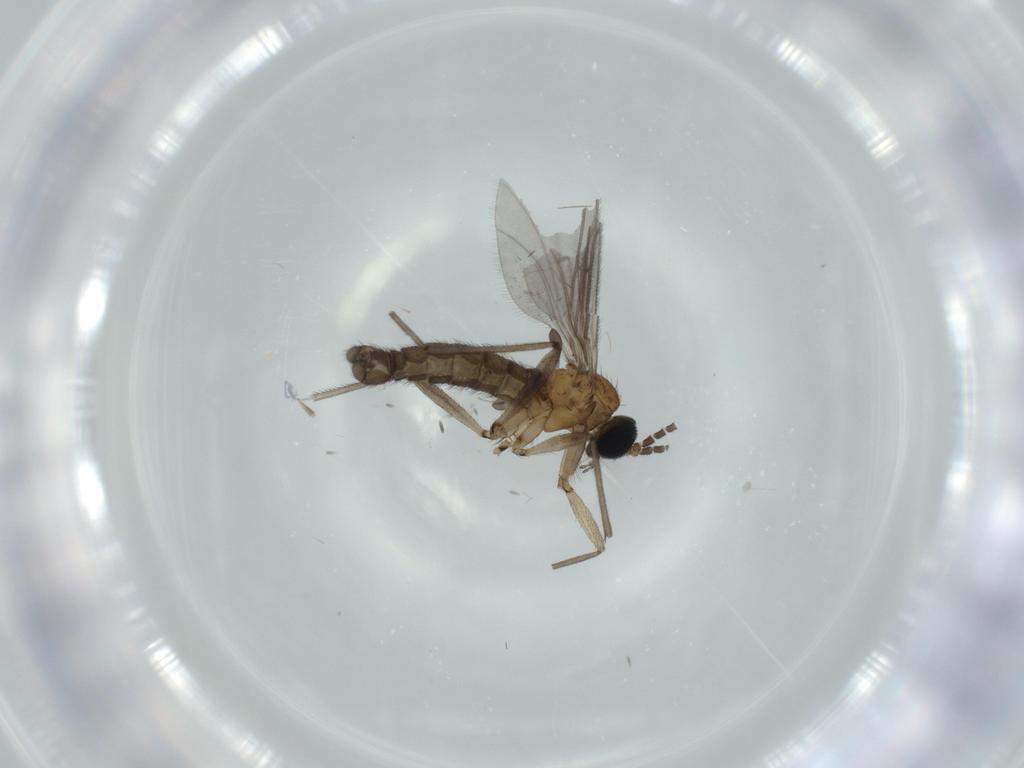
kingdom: Animalia
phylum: Arthropoda
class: Insecta
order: Diptera
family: Sciaridae
